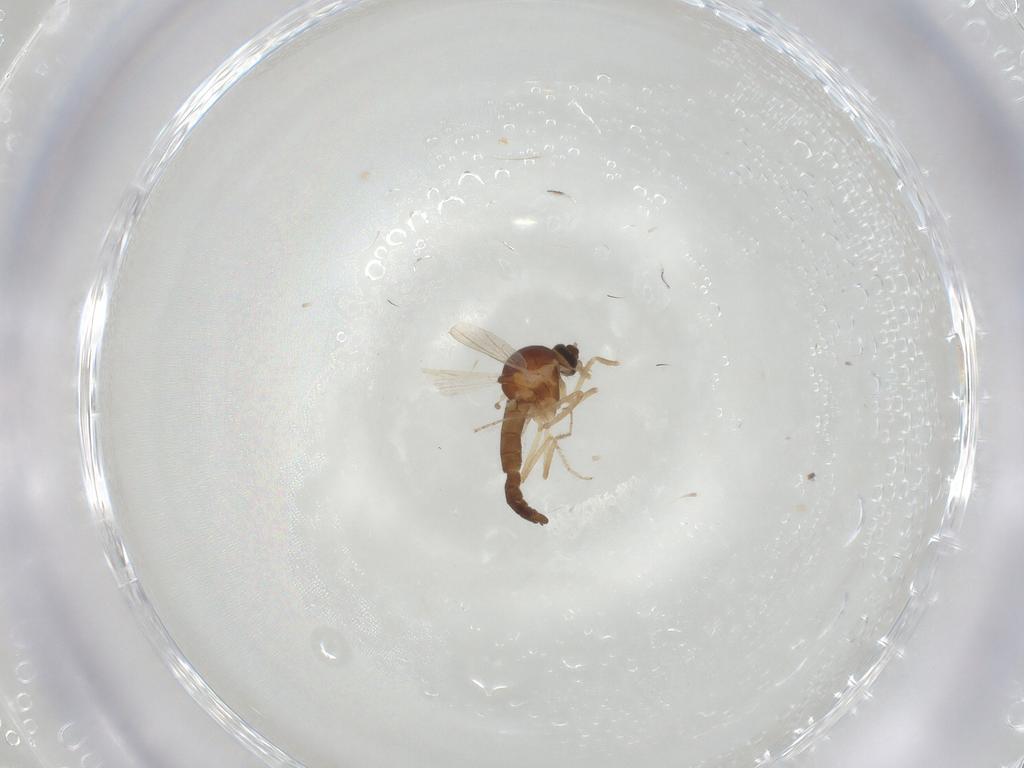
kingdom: Animalia
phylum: Arthropoda
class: Insecta
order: Diptera
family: Ceratopogonidae
